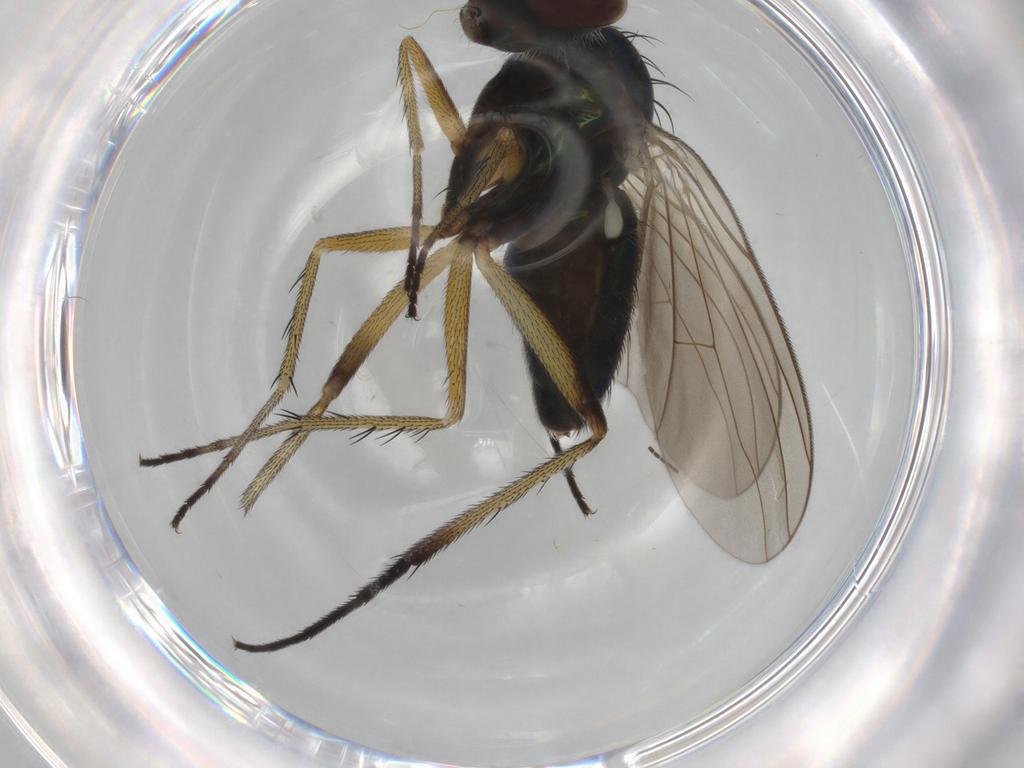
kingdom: Animalia
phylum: Arthropoda
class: Insecta
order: Diptera
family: Dolichopodidae
